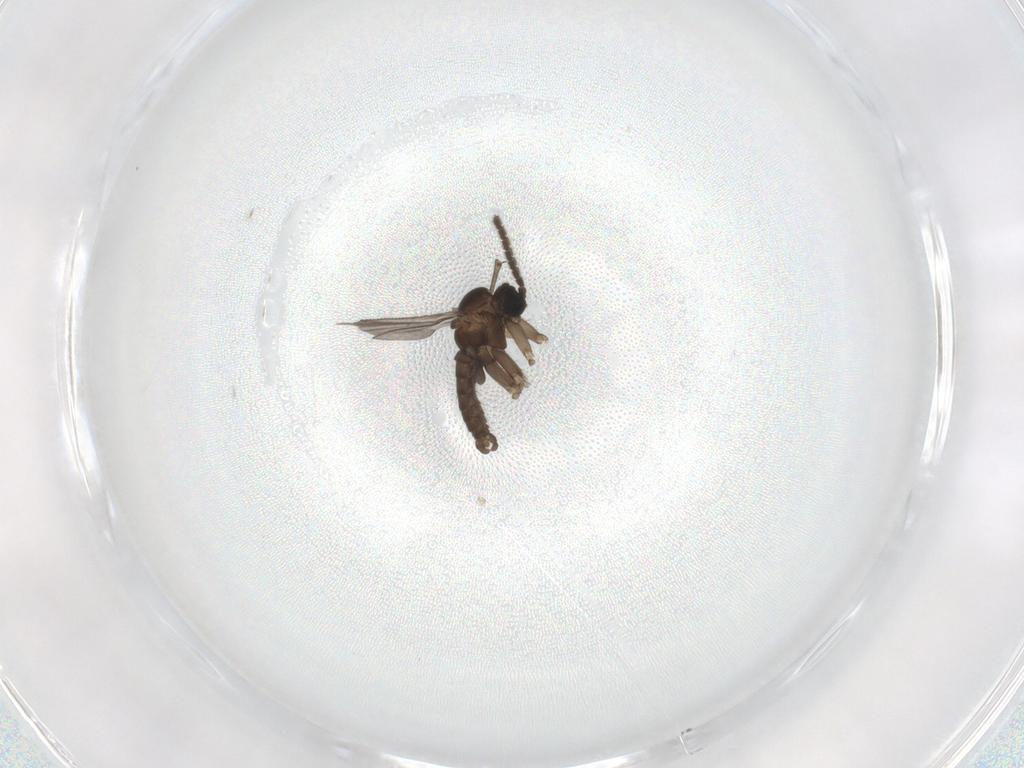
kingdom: Animalia
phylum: Arthropoda
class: Insecta
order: Diptera
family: Sciaridae
